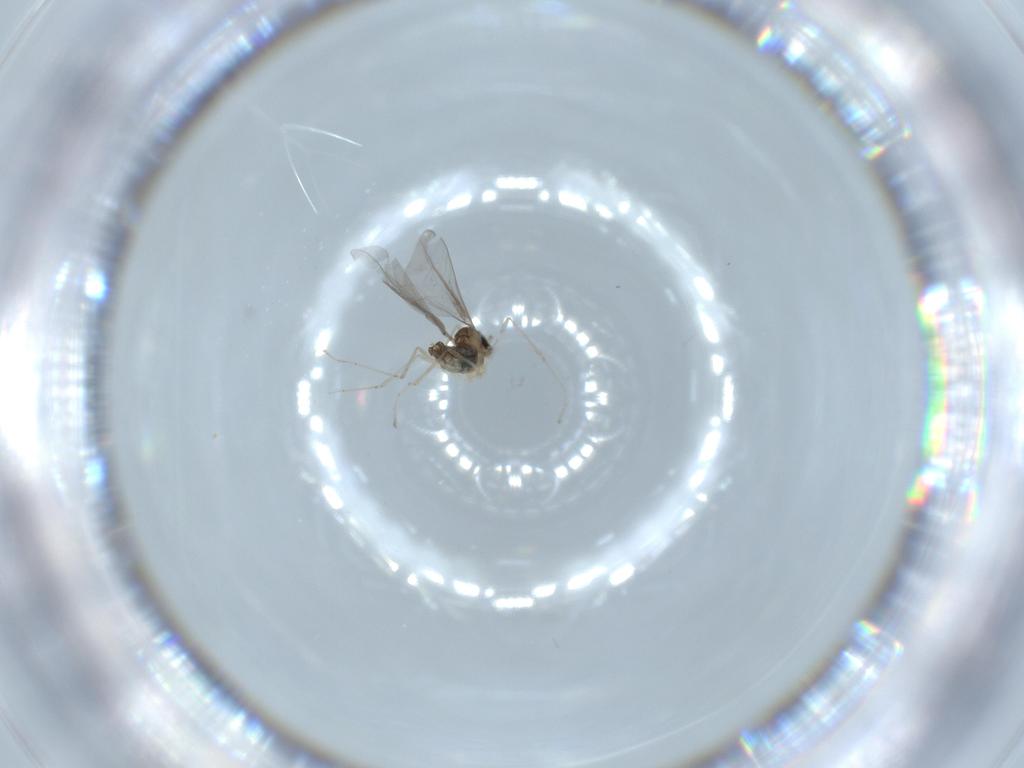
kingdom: Animalia
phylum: Arthropoda
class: Insecta
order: Diptera
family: Cecidomyiidae
